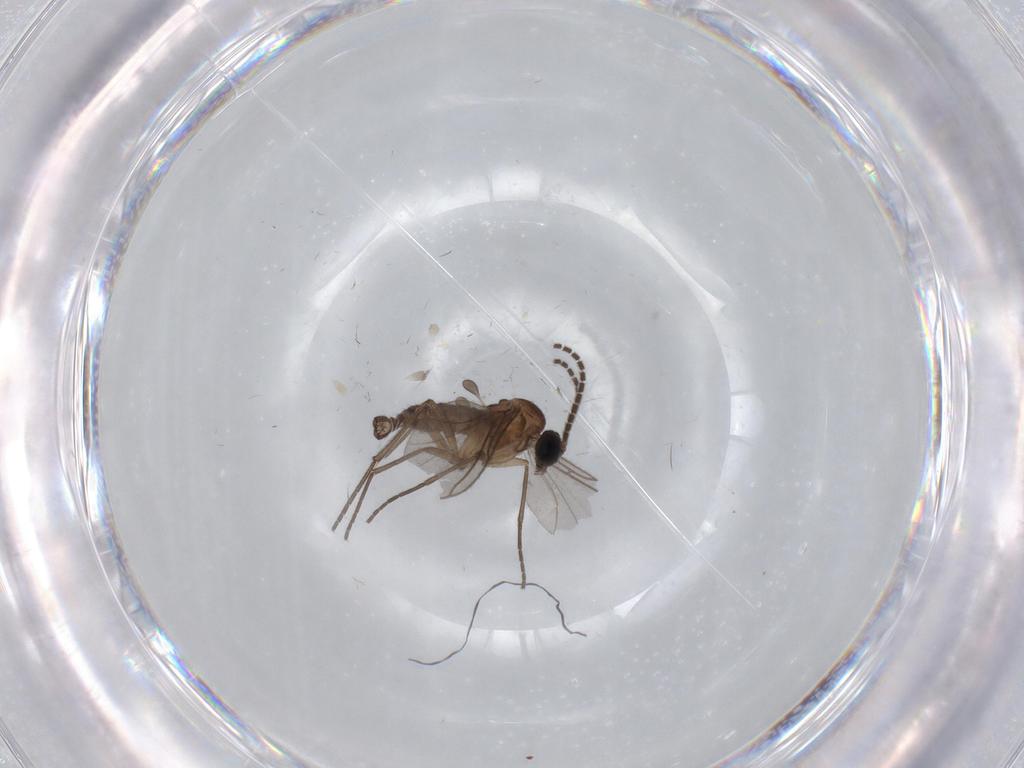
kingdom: Animalia
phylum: Arthropoda
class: Insecta
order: Diptera
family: Sciaridae
